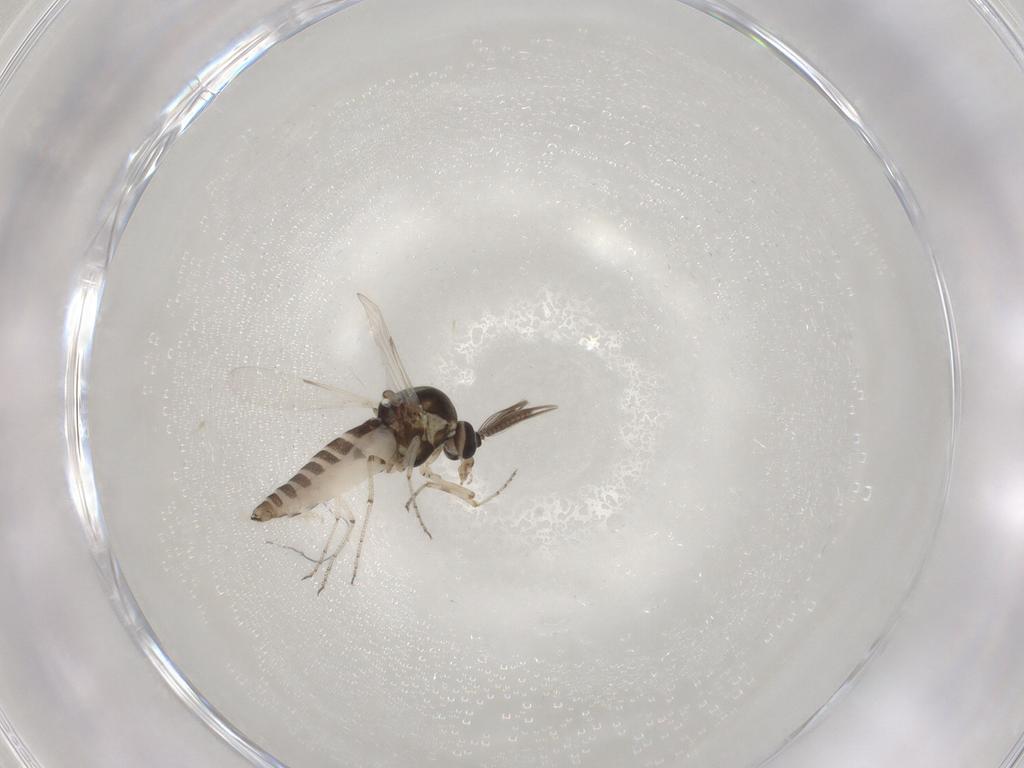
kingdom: Animalia
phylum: Arthropoda
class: Insecta
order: Diptera
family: Ceratopogonidae
